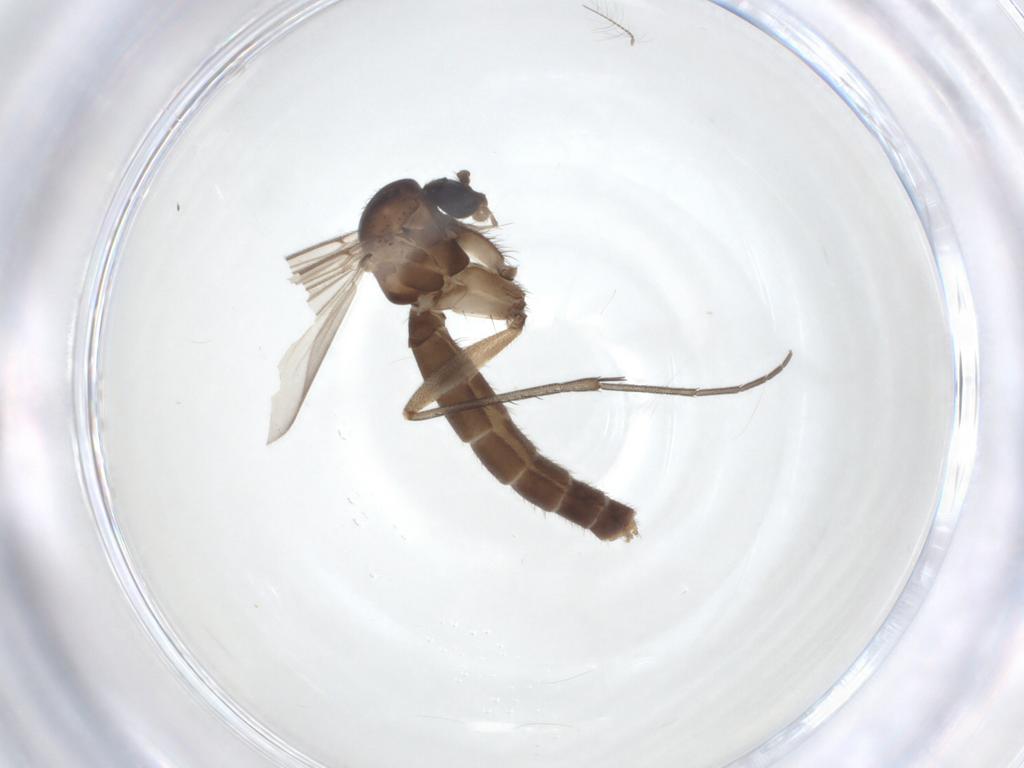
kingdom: Animalia
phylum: Arthropoda
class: Insecta
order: Diptera
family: Mycetophilidae
